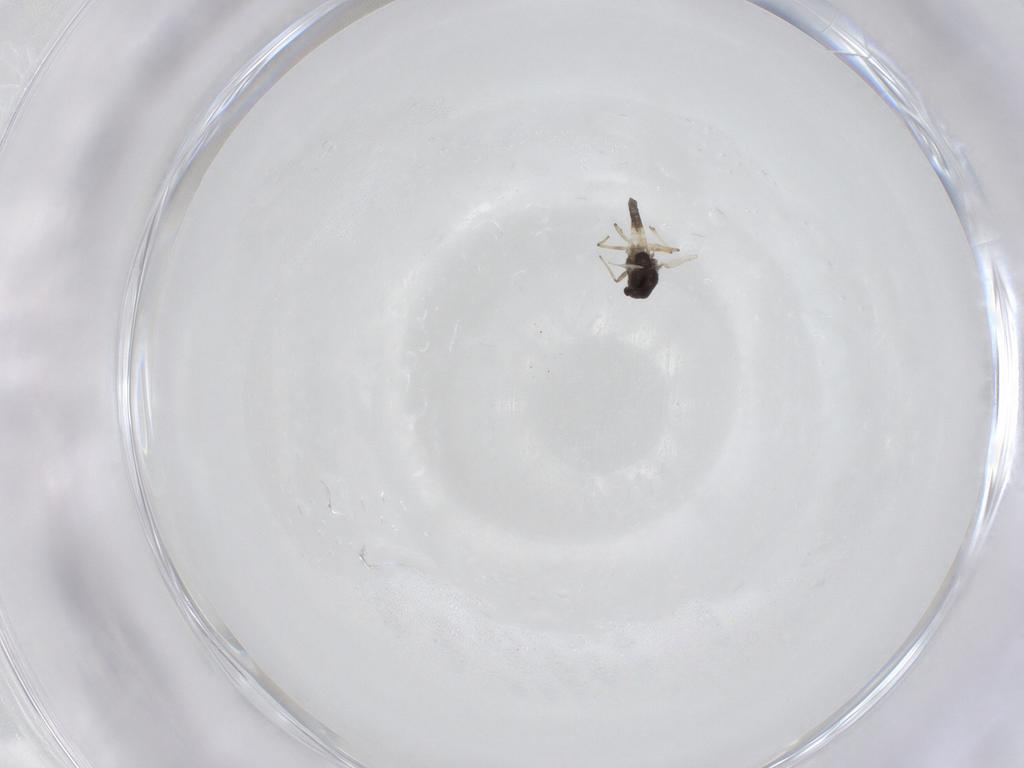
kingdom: Animalia
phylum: Arthropoda
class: Insecta
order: Diptera
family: Chironomidae
